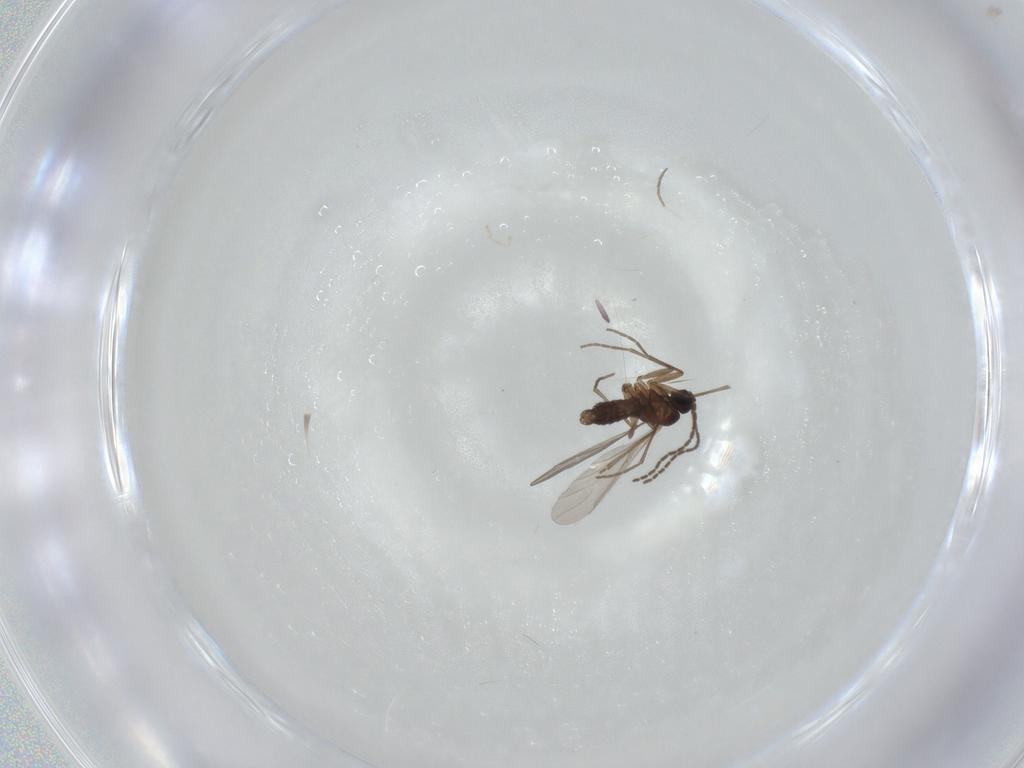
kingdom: Animalia
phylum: Arthropoda
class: Insecta
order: Diptera
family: Sciaridae
